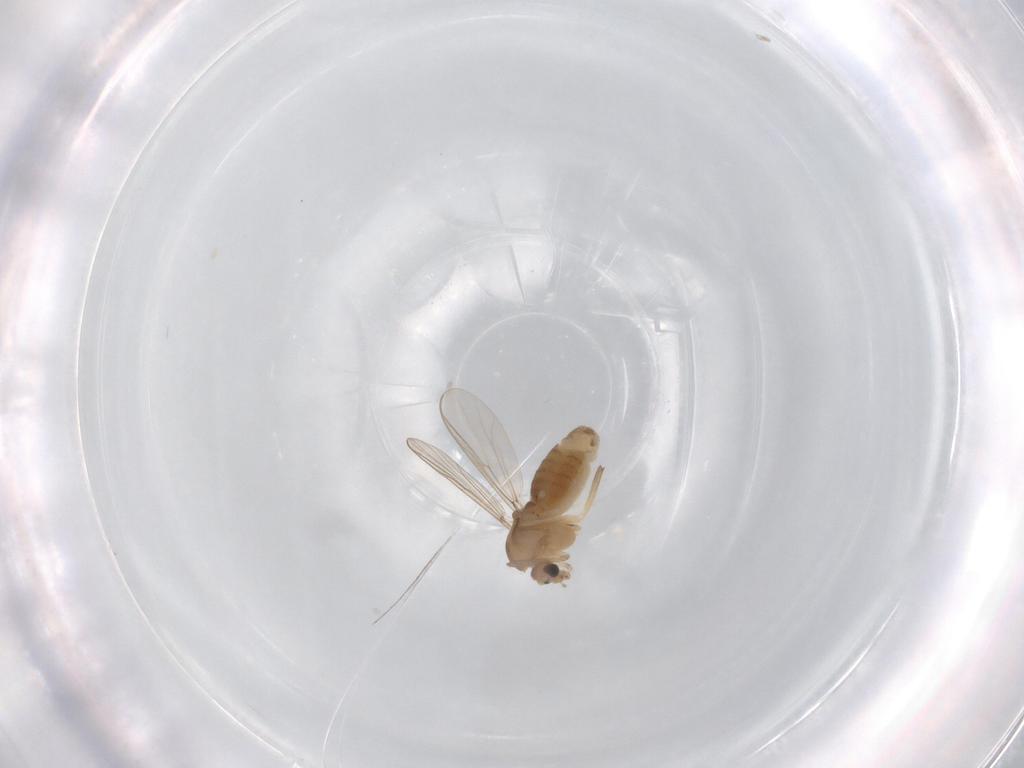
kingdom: Animalia
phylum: Arthropoda
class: Insecta
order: Diptera
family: Chironomidae
